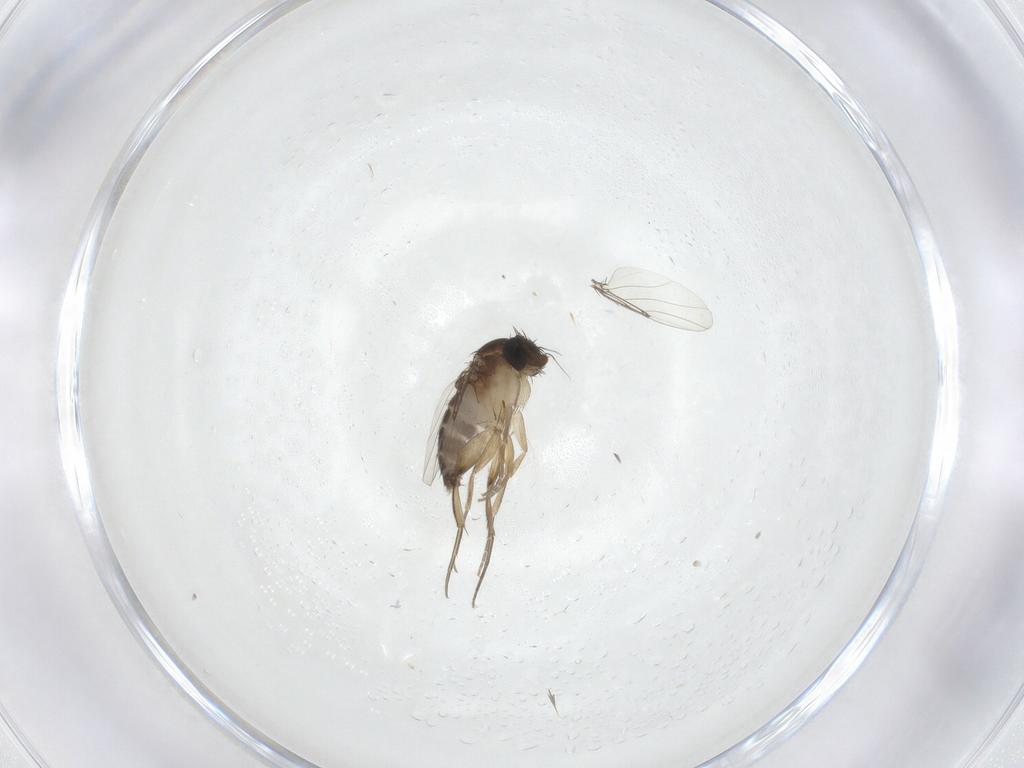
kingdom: Animalia
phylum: Arthropoda
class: Insecta
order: Diptera
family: Phoridae
